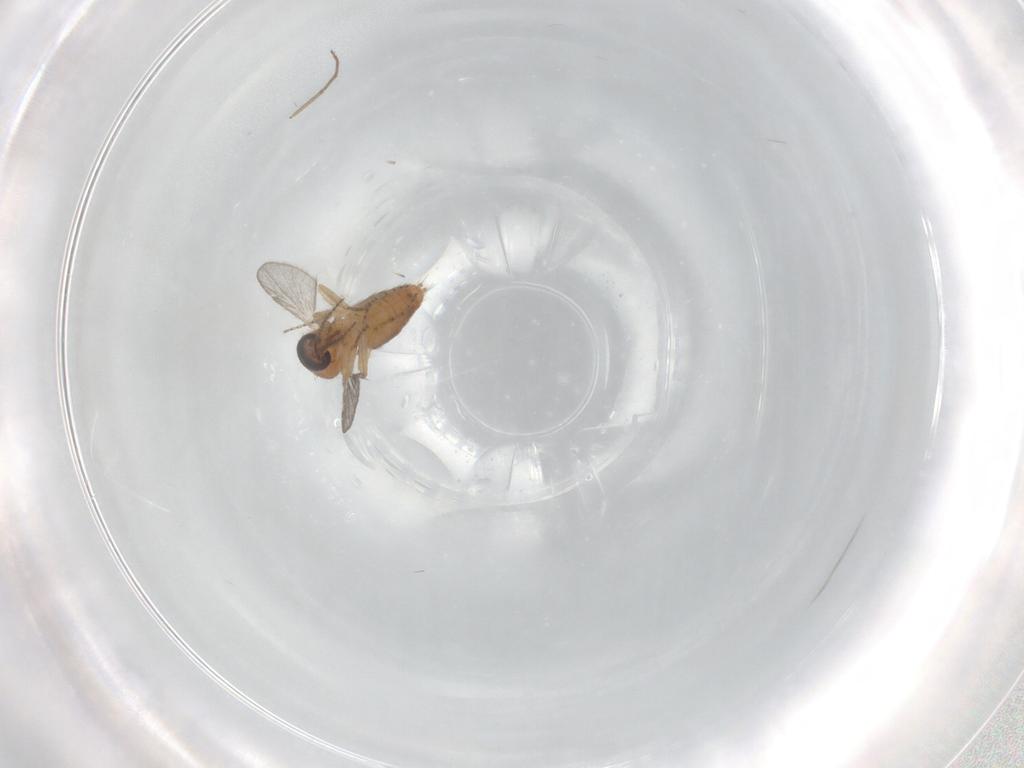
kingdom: Animalia
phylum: Arthropoda
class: Insecta
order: Diptera
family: Ceratopogonidae
